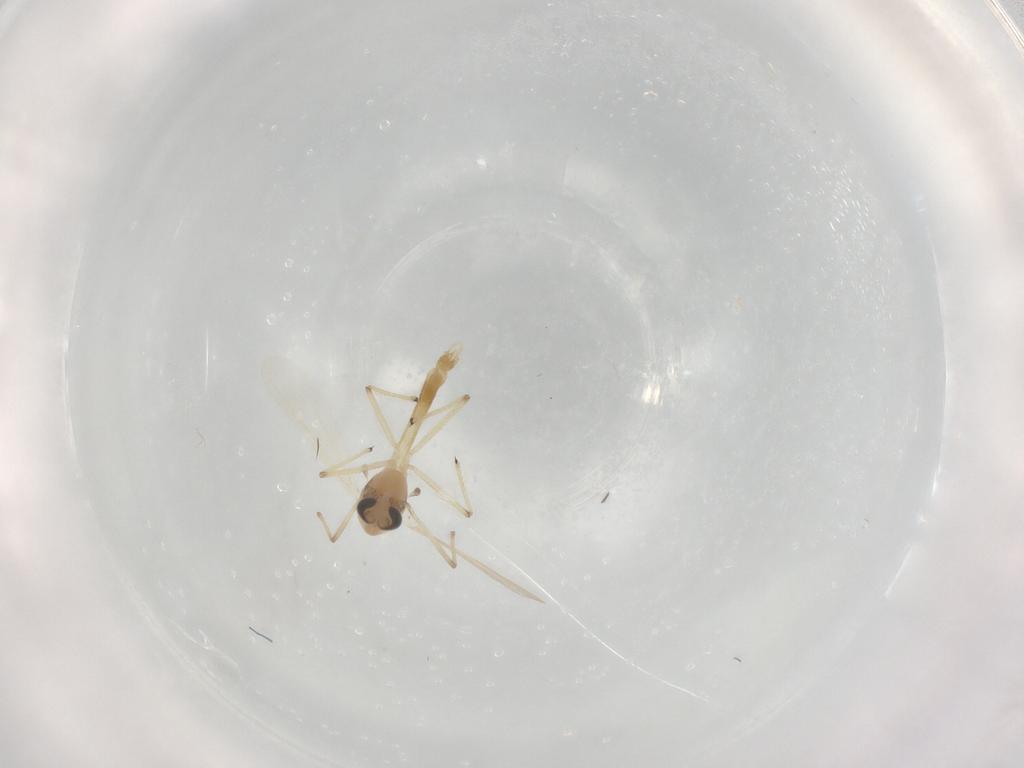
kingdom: Animalia
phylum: Arthropoda
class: Insecta
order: Diptera
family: Chironomidae
